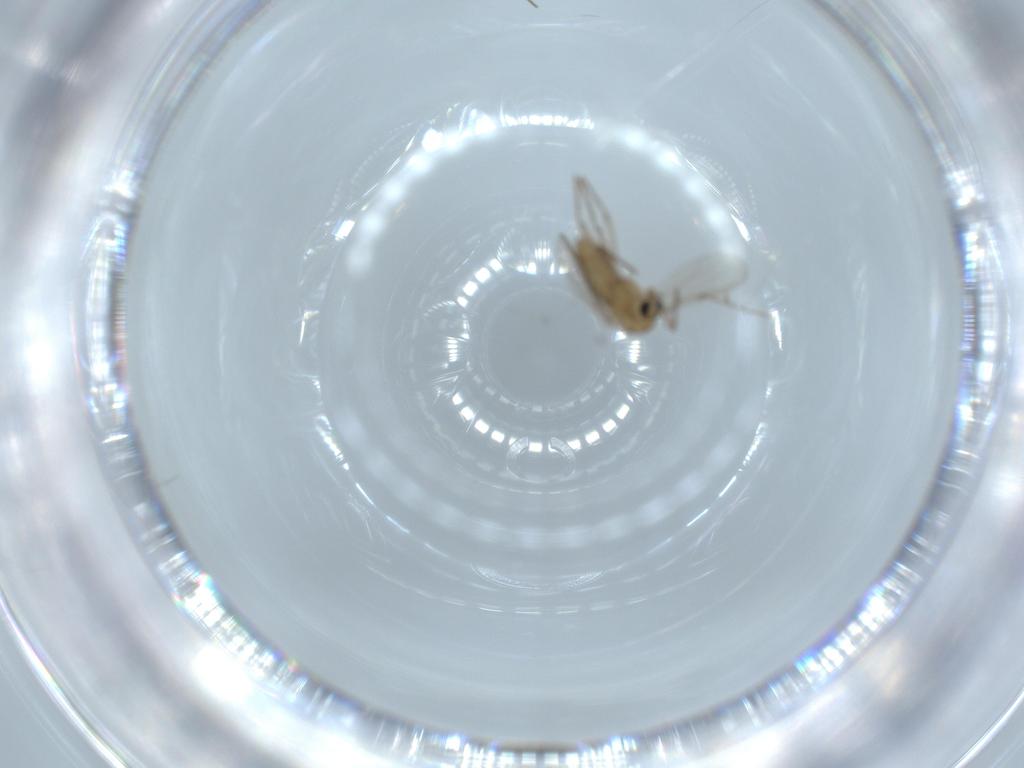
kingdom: Animalia
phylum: Arthropoda
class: Insecta
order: Diptera
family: Chironomidae
